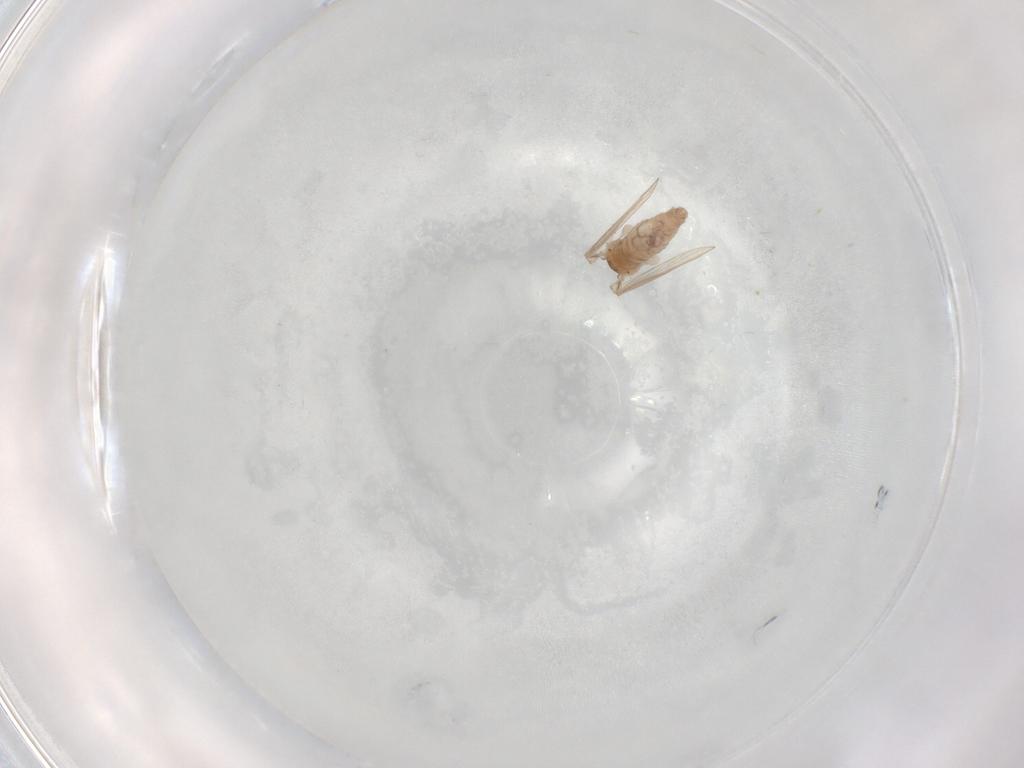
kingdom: Animalia
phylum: Arthropoda
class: Insecta
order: Diptera
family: Psychodidae
